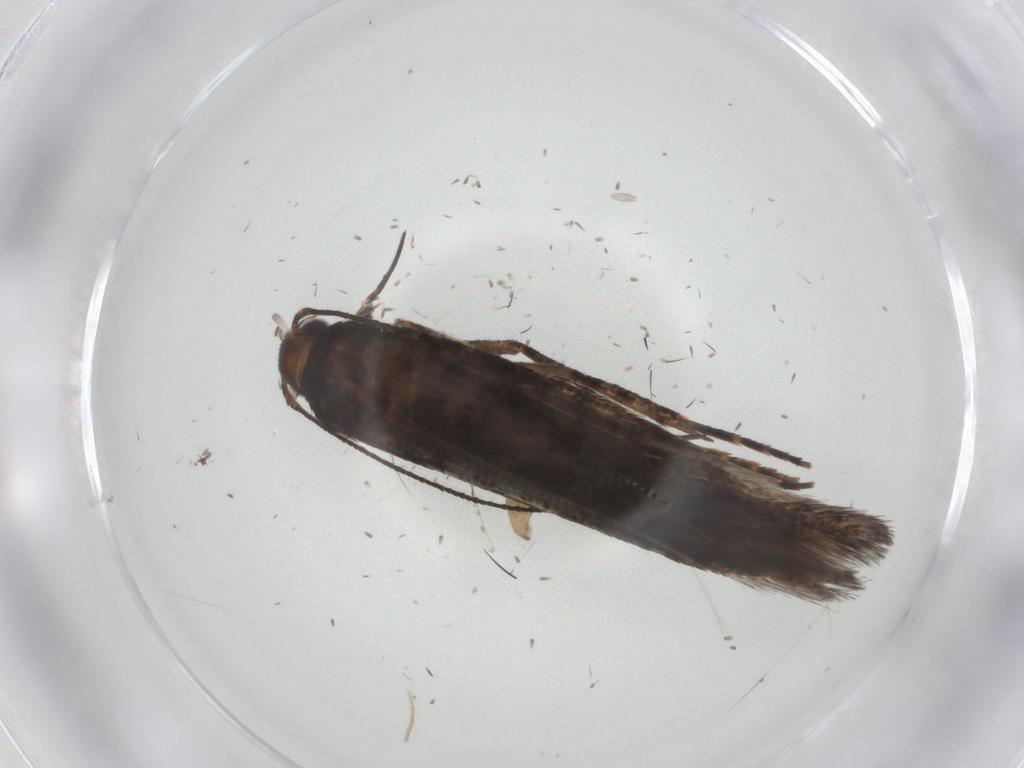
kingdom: Animalia
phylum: Arthropoda
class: Insecta
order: Lepidoptera
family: Gelechiidae
